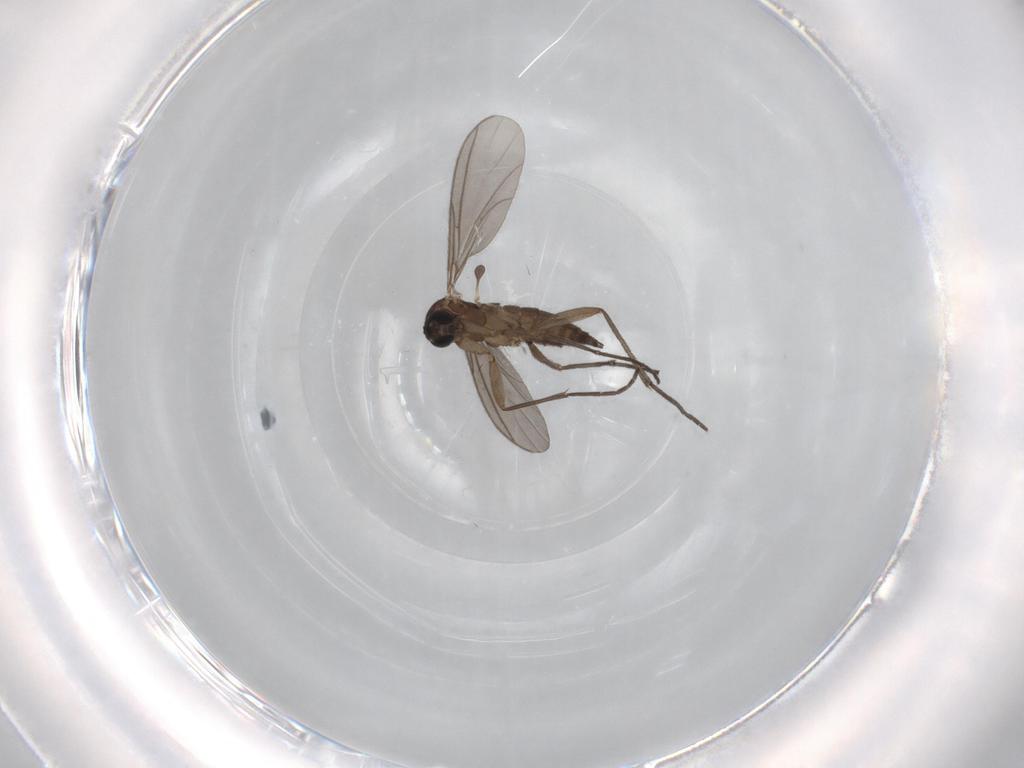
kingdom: Animalia
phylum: Arthropoda
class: Insecta
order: Diptera
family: Sciaridae
